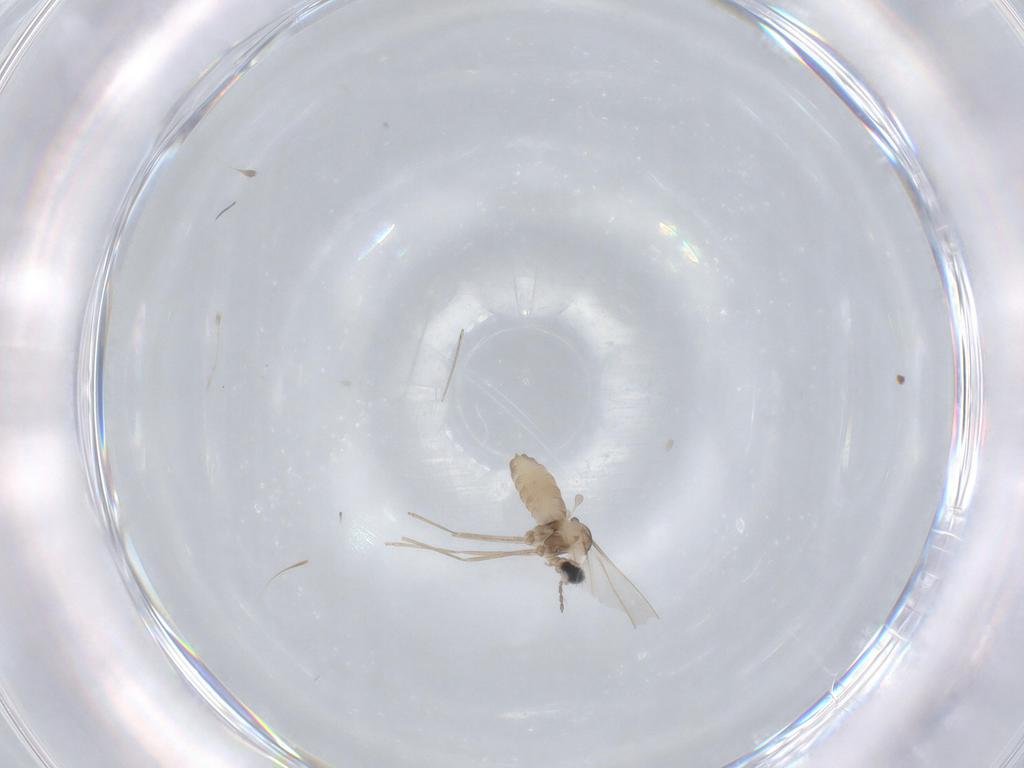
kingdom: Animalia
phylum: Arthropoda
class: Insecta
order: Diptera
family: Cecidomyiidae
